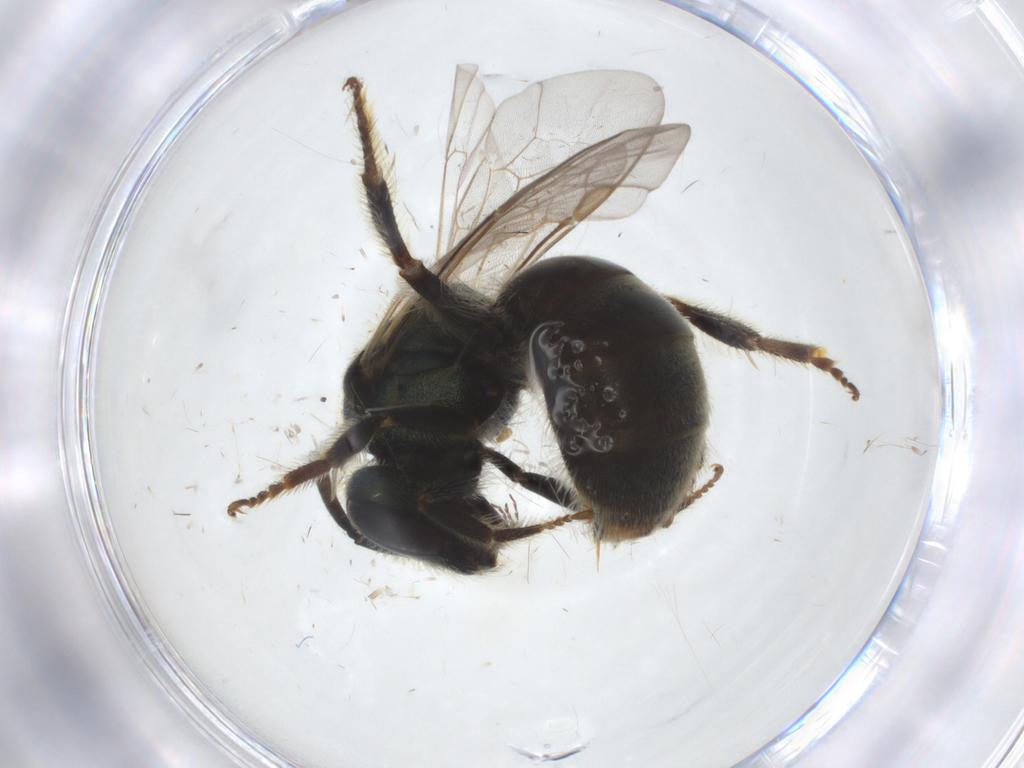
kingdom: Animalia
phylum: Arthropoda
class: Insecta
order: Hymenoptera
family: Halictidae
